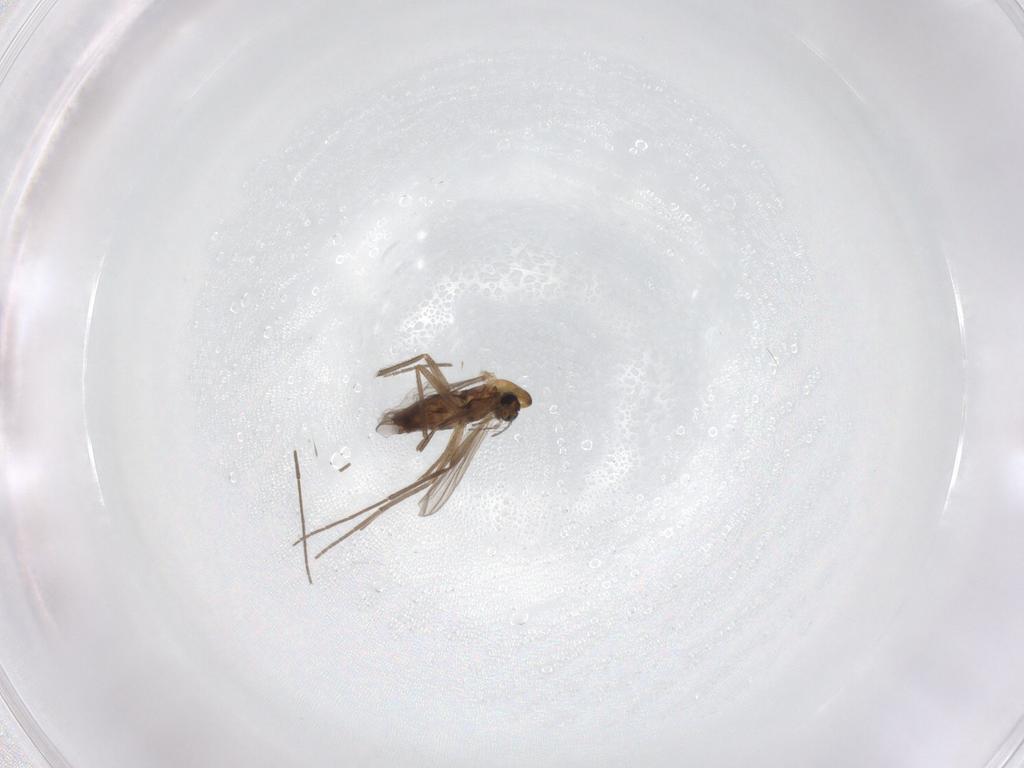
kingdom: Animalia
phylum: Arthropoda
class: Insecta
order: Diptera
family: Chironomidae
